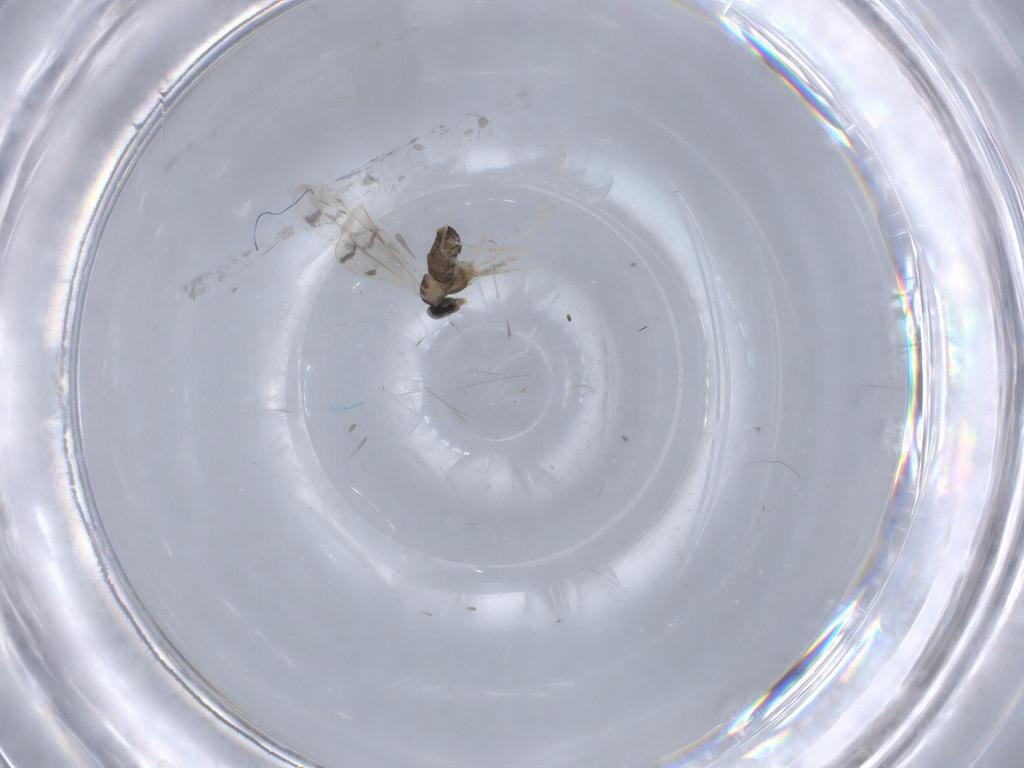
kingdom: Animalia
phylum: Arthropoda
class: Insecta
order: Diptera
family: Cecidomyiidae
